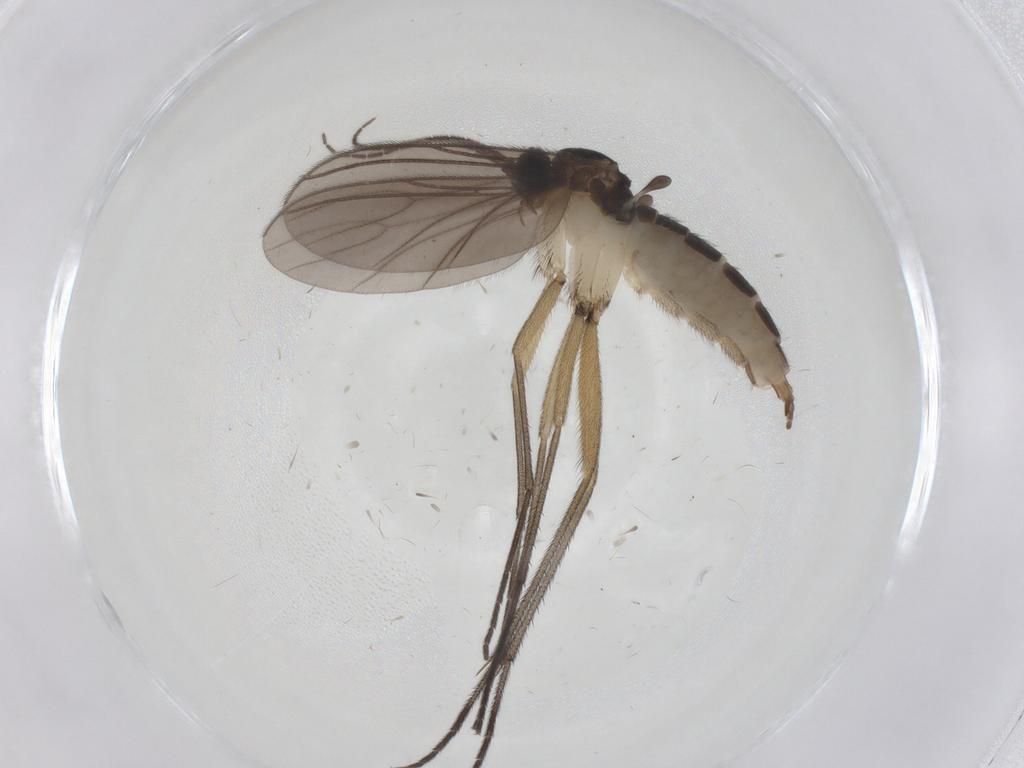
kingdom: Animalia
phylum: Arthropoda
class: Insecta
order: Diptera
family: Sciaridae
